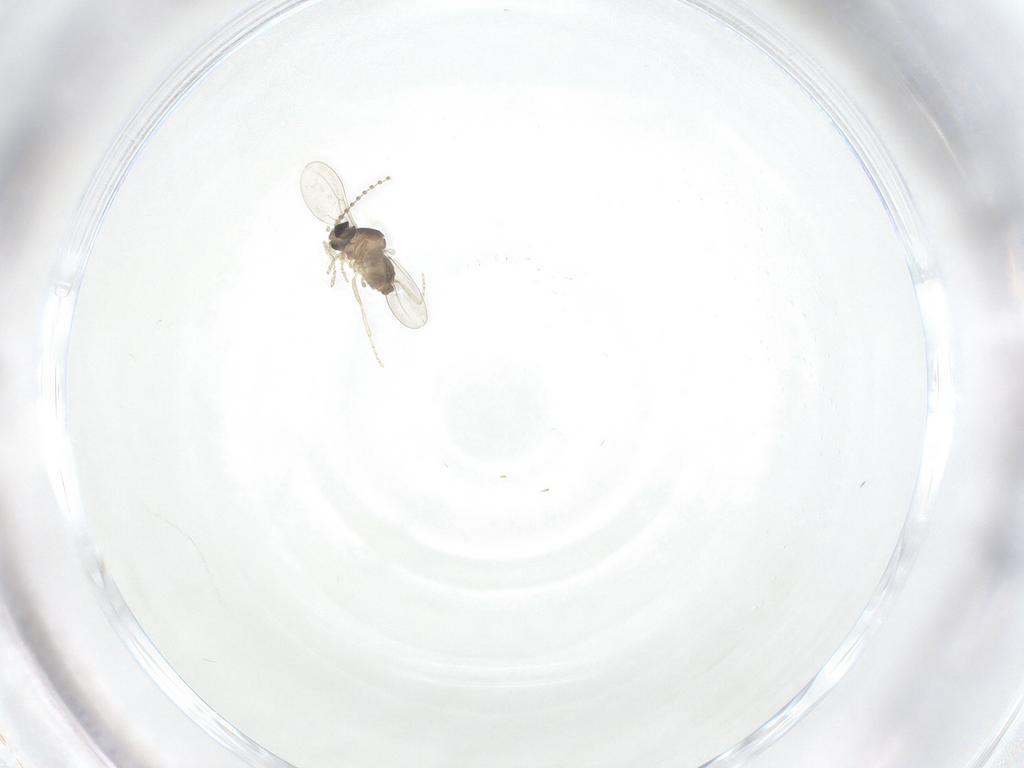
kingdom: Animalia
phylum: Arthropoda
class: Insecta
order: Diptera
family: Cecidomyiidae
